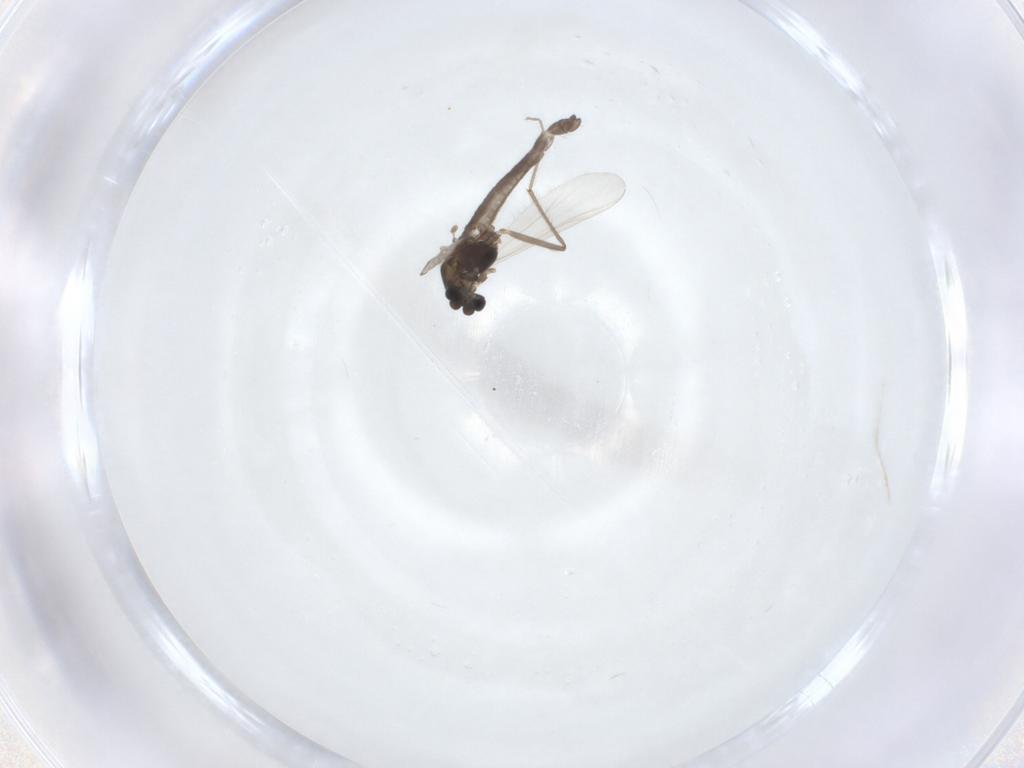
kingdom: Animalia
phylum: Arthropoda
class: Insecta
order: Diptera
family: Chironomidae
